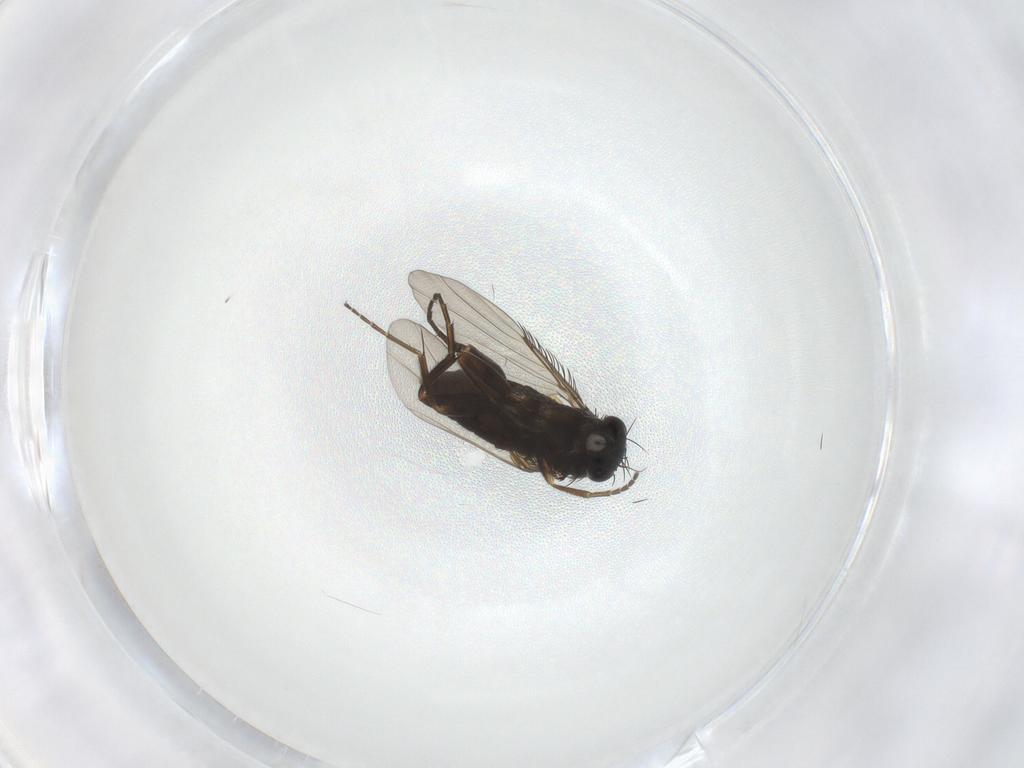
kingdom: Animalia
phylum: Arthropoda
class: Insecta
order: Diptera
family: Phoridae
